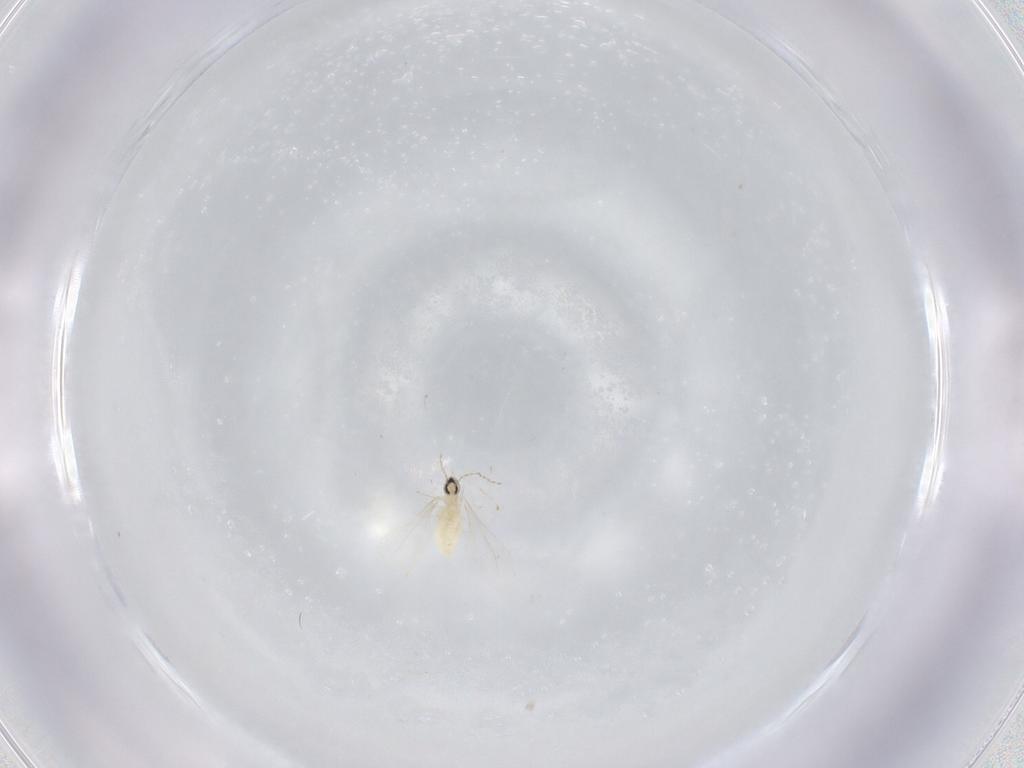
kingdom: Animalia
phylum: Arthropoda
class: Insecta
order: Diptera
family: Cecidomyiidae
